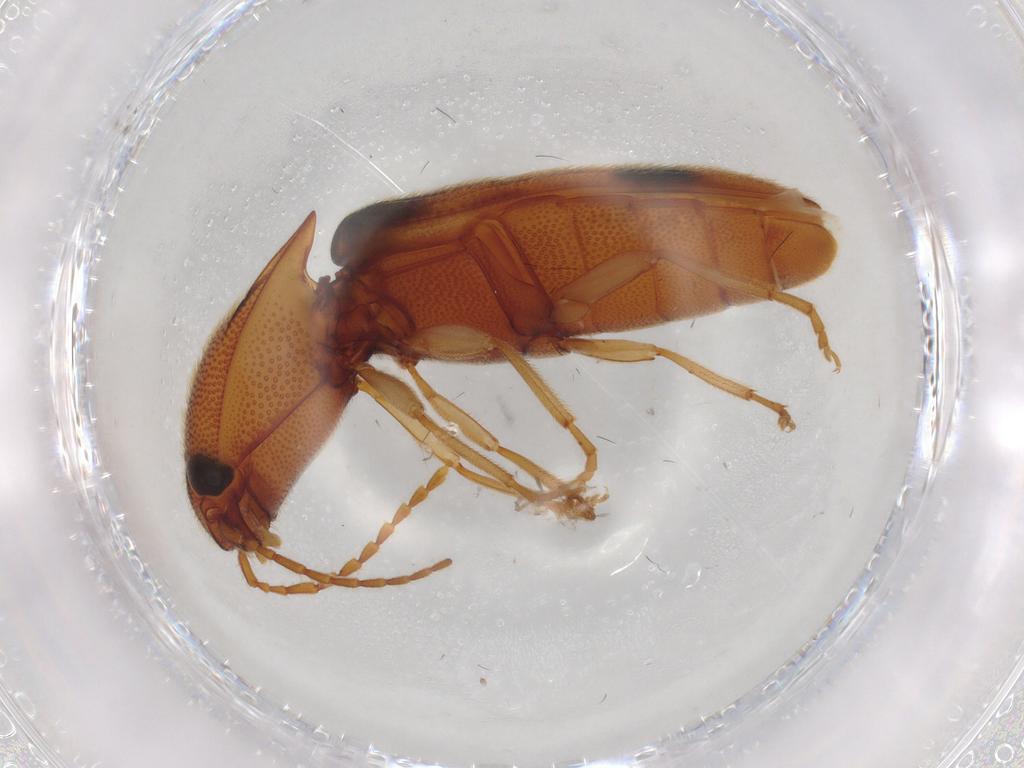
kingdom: Animalia
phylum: Arthropoda
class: Insecta
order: Coleoptera
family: Elateridae
